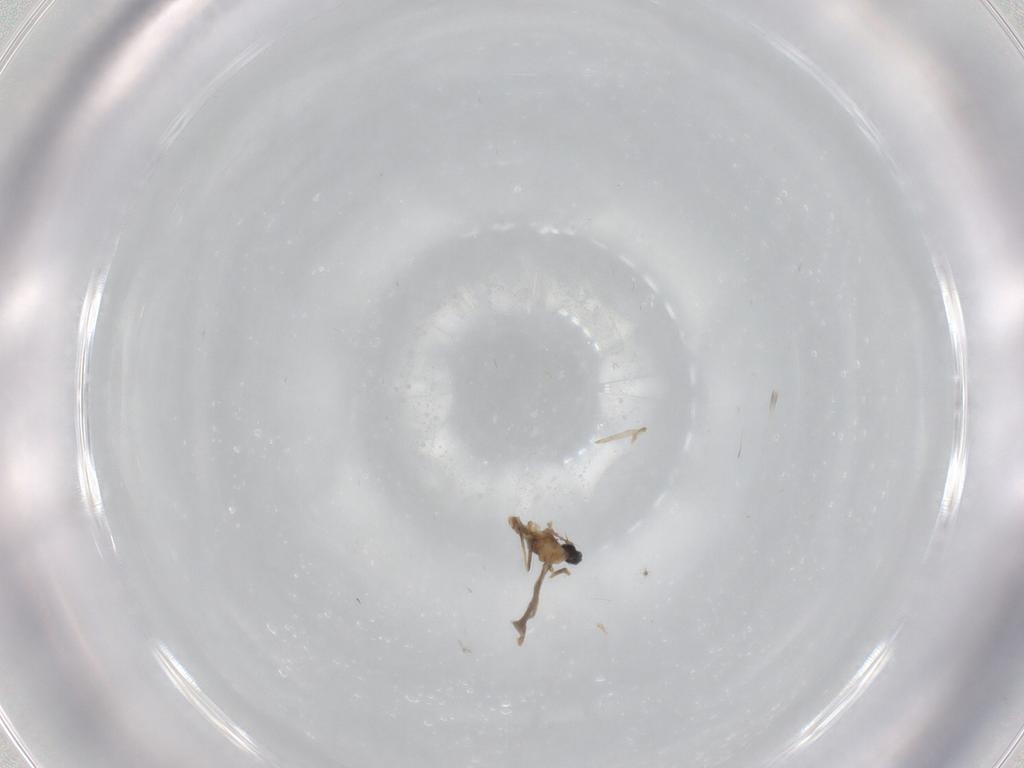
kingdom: Animalia
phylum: Arthropoda
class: Insecta
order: Diptera
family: Cecidomyiidae
